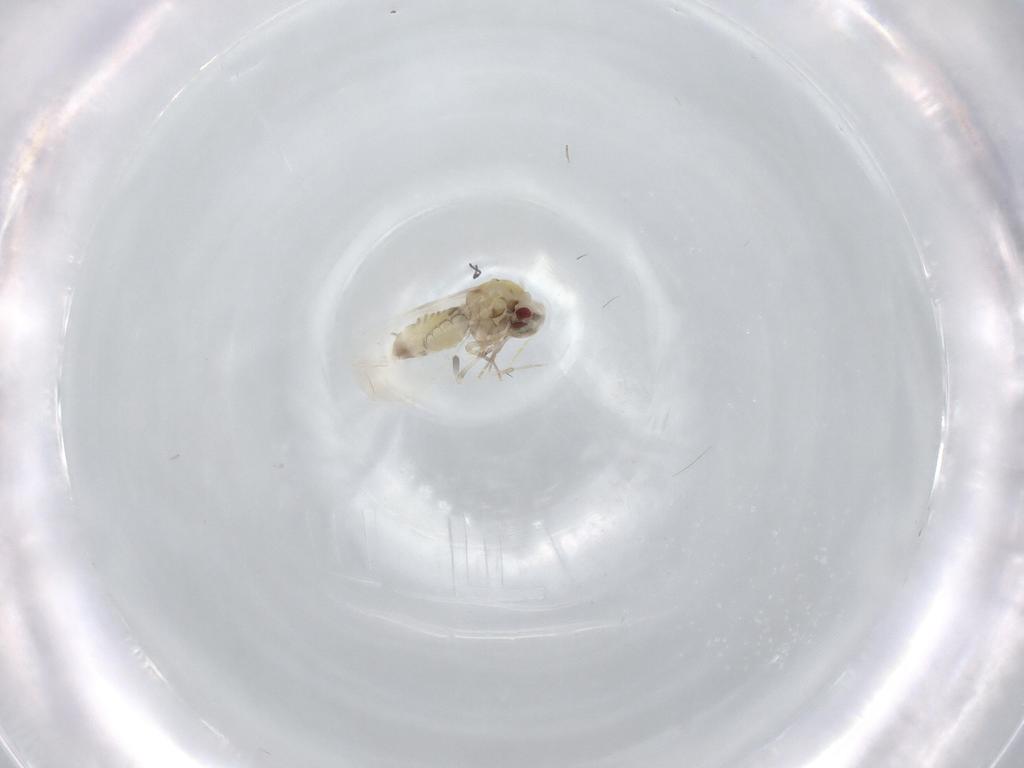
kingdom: Animalia
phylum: Arthropoda
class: Insecta
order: Hemiptera
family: Aleyrodidae
